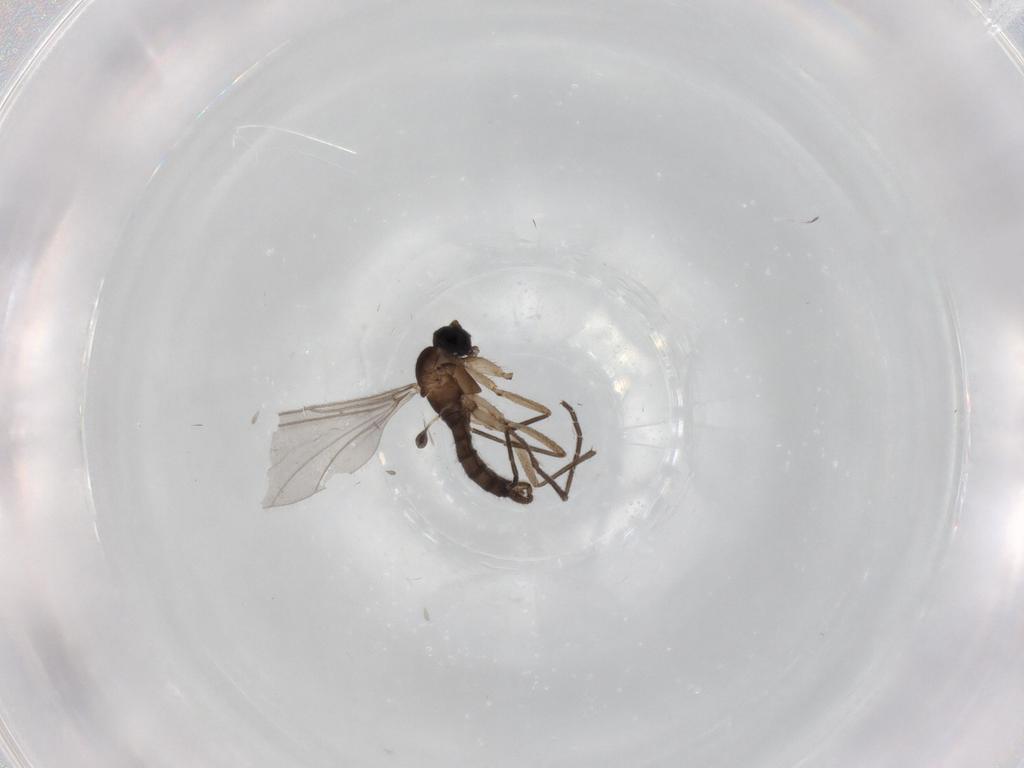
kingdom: Animalia
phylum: Arthropoda
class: Insecta
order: Diptera
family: Sciaridae
